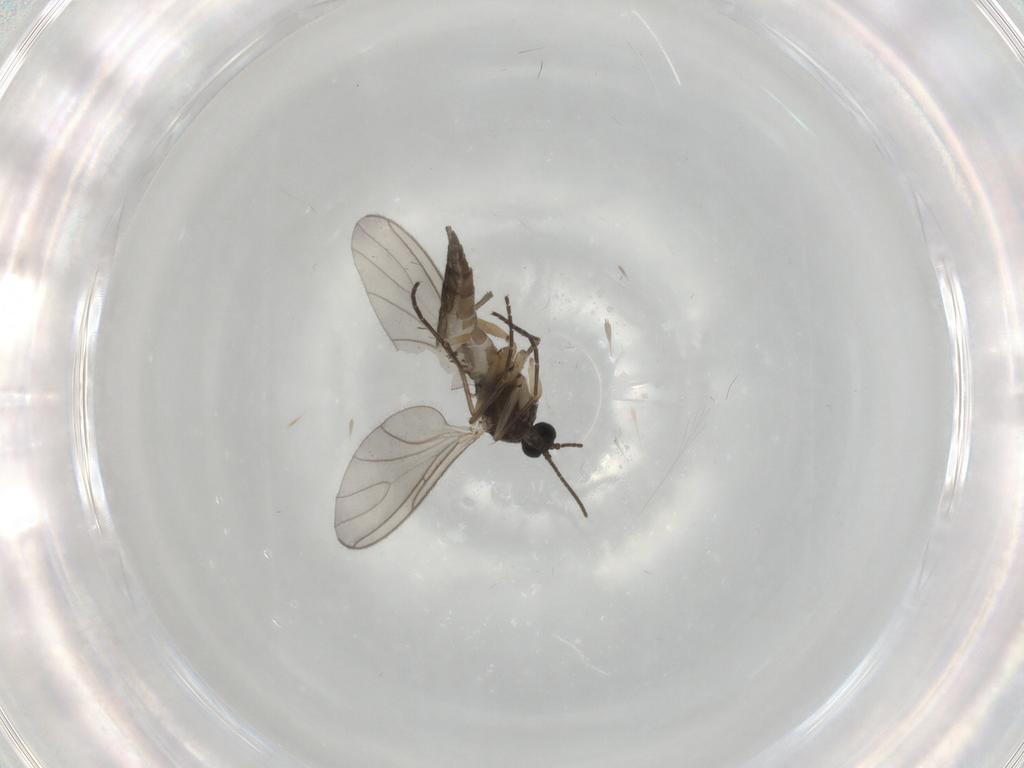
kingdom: Animalia
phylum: Arthropoda
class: Insecta
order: Diptera
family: Sciaridae
